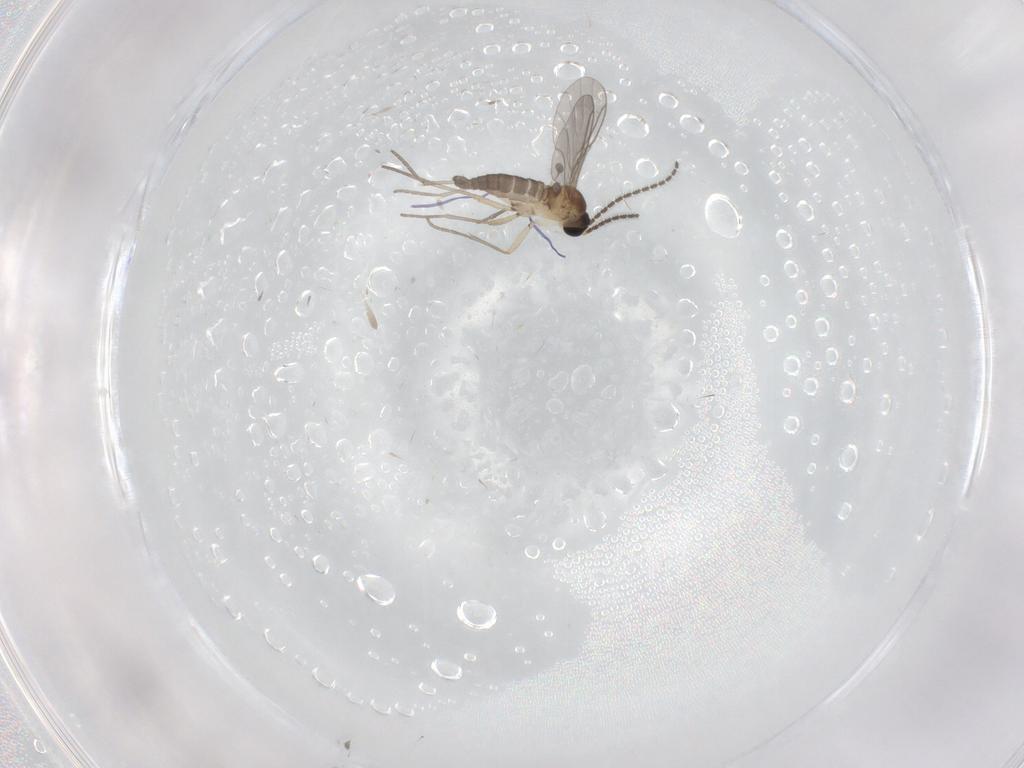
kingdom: Animalia
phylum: Arthropoda
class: Insecta
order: Diptera
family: Sciaridae
